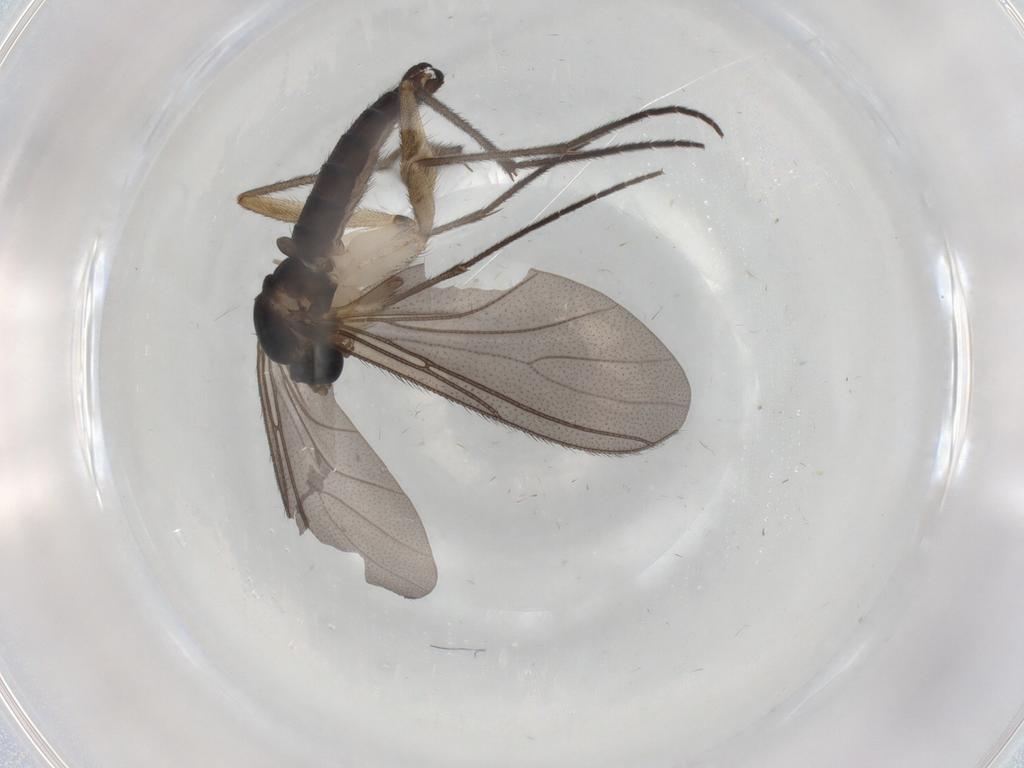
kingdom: Animalia
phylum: Arthropoda
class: Insecta
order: Diptera
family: Sciaridae
